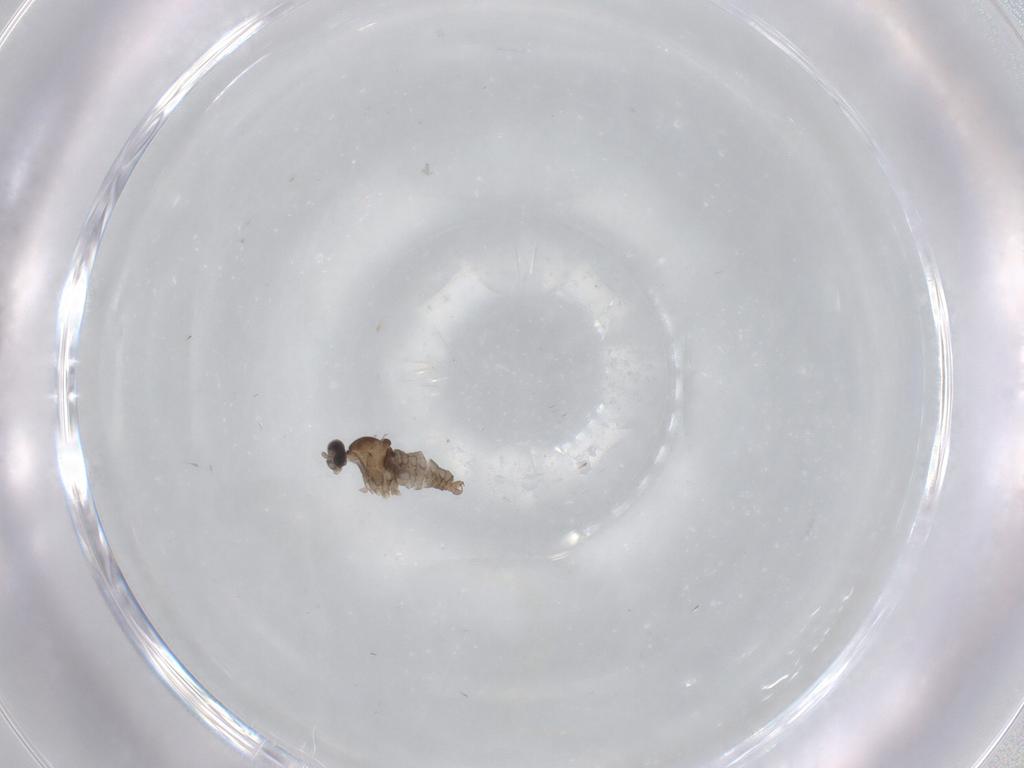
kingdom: Animalia
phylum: Arthropoda
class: Insecta
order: Diptera
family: Cecidomyiidae
